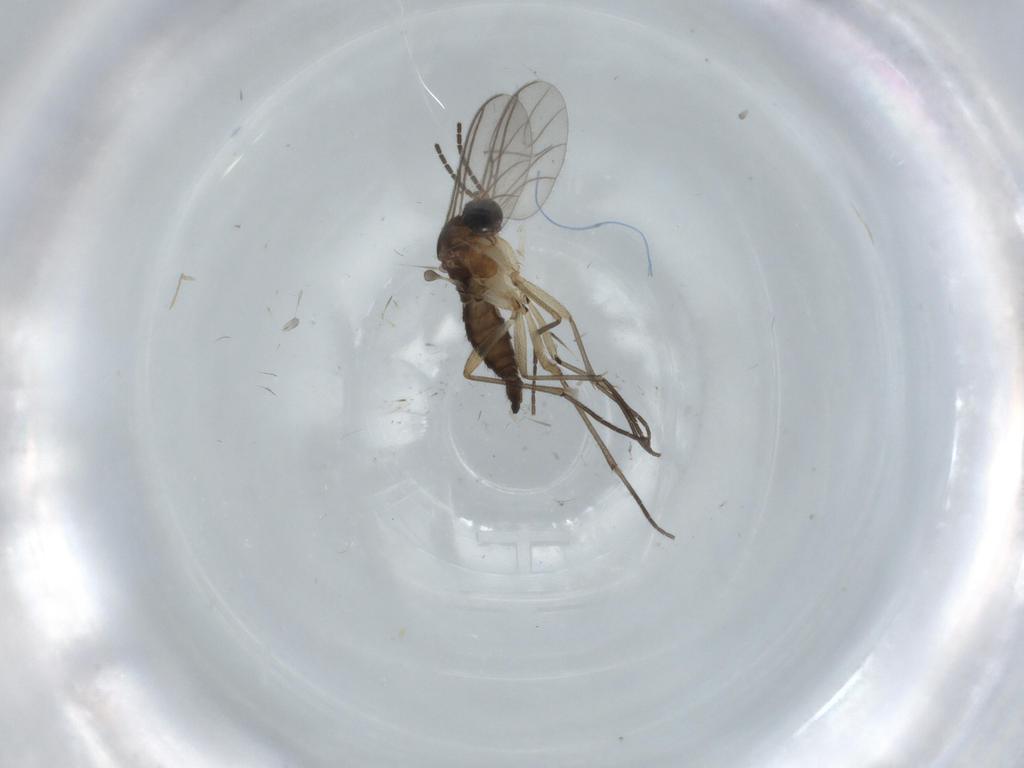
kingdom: Animalia
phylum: Arthropoda
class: Insecta
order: Diptera
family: Sciaridae
